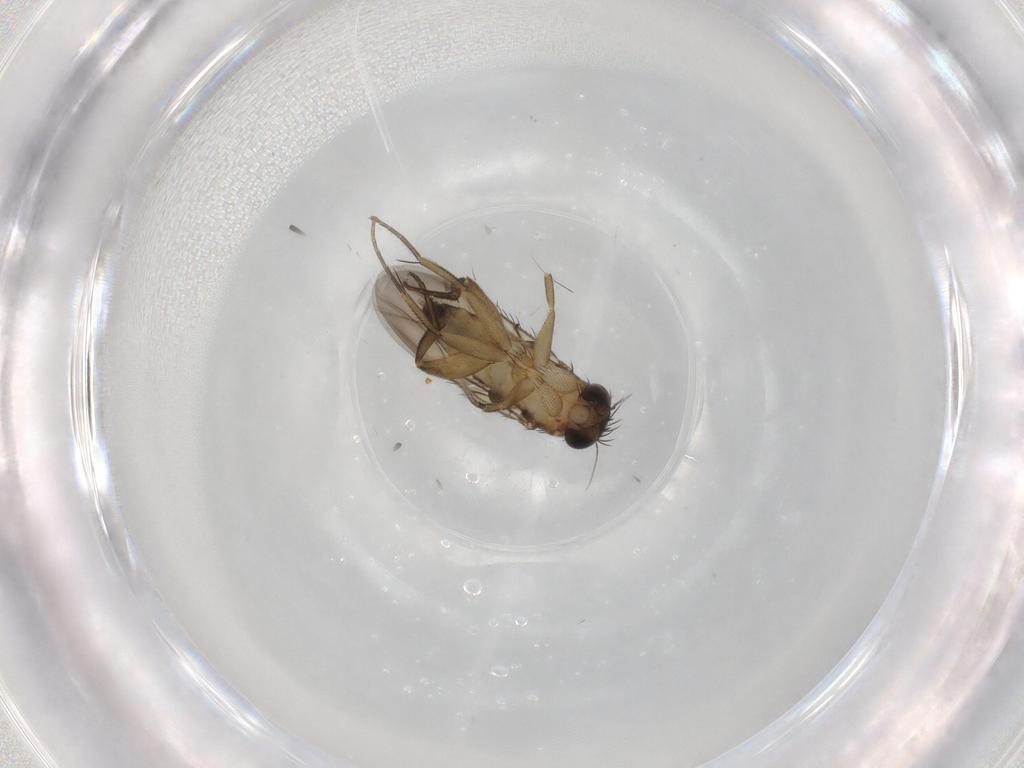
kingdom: Animalia
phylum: Arthropoda
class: Insecta
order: Diptera
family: Phoridae
